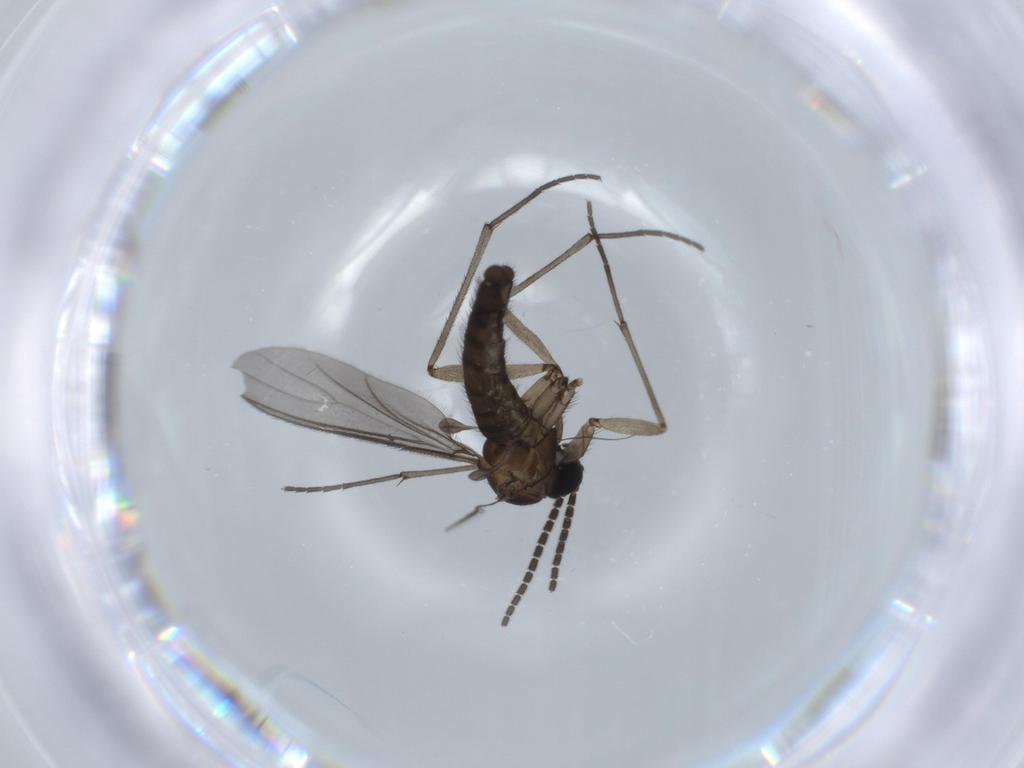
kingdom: Animalia
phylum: Arthropoda
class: Insecta
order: Diptera
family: Sciaridae
